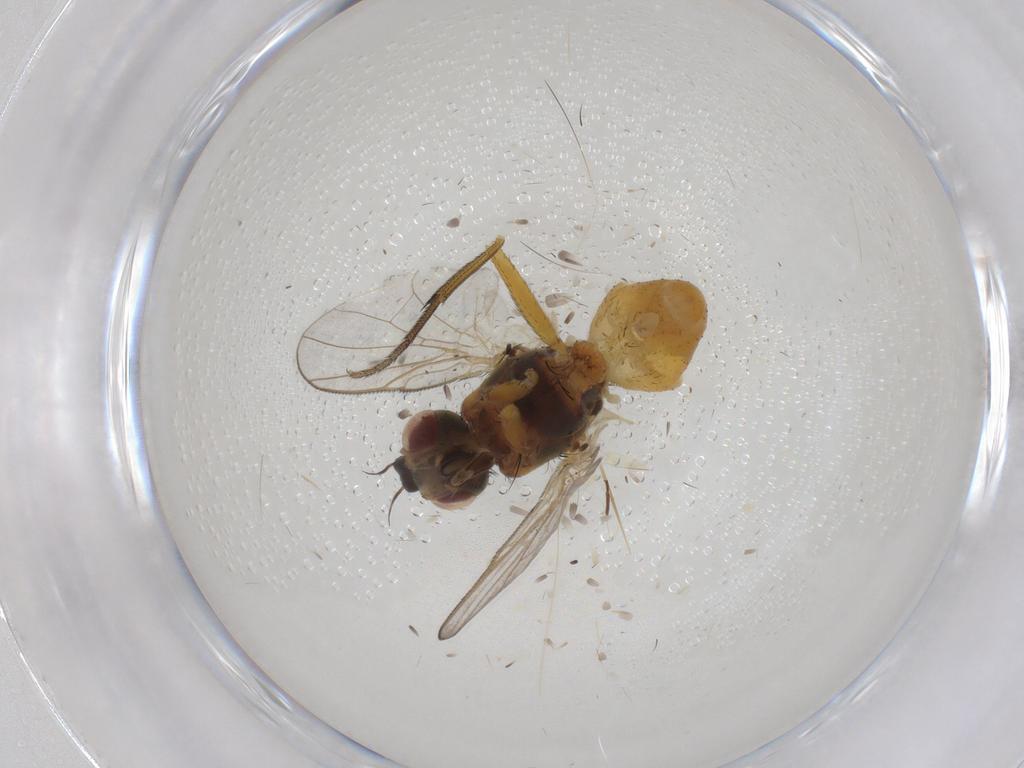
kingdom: Animalia
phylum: Arthropoda
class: Insecta
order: Diptera
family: Muscidae
